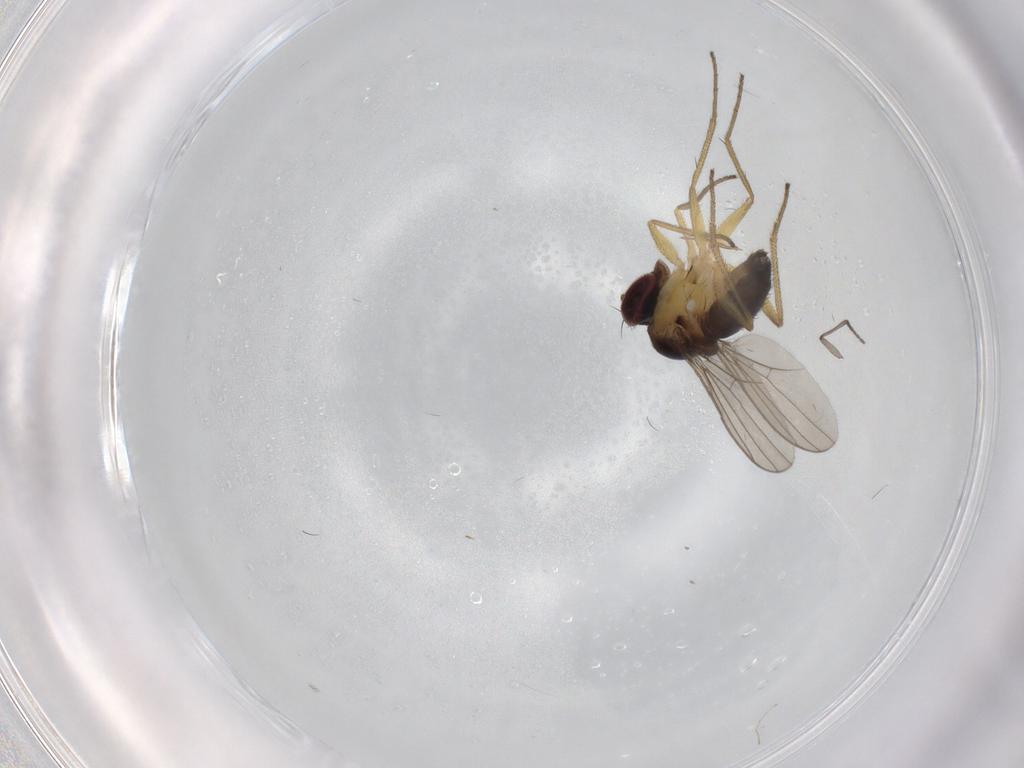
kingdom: Animalia
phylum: Arthropoda
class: Insecta
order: Diptera
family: Dolichopodidae
